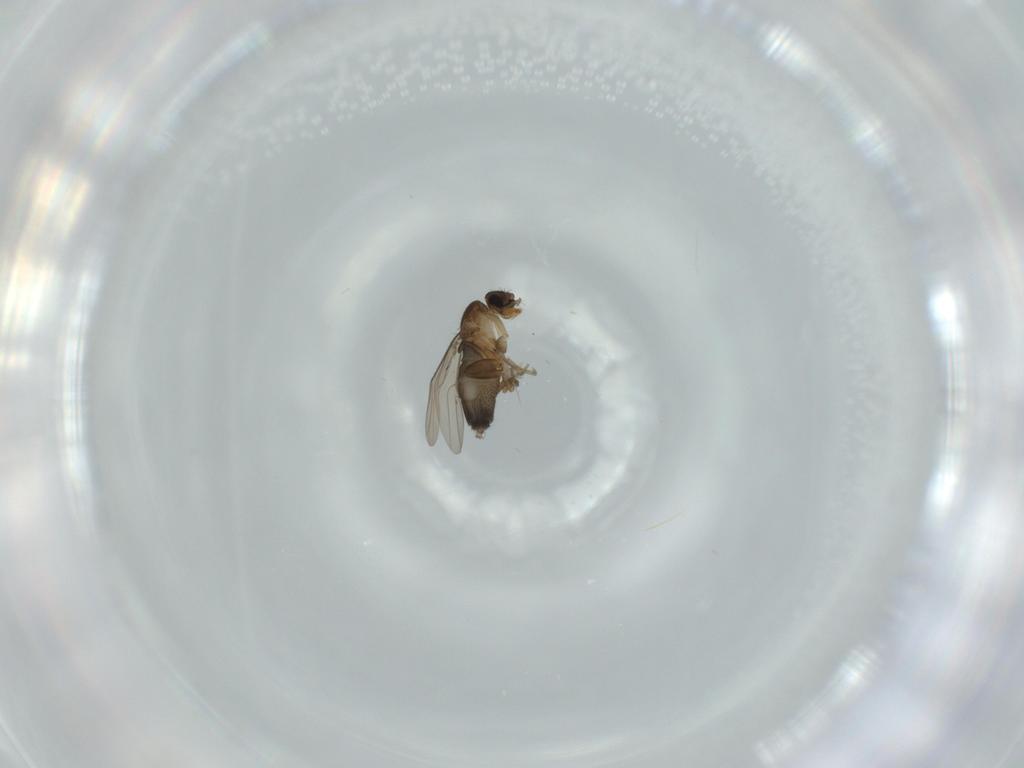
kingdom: Animalia
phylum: Arthropoda
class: Insecta
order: Diptera
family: Phoridae
